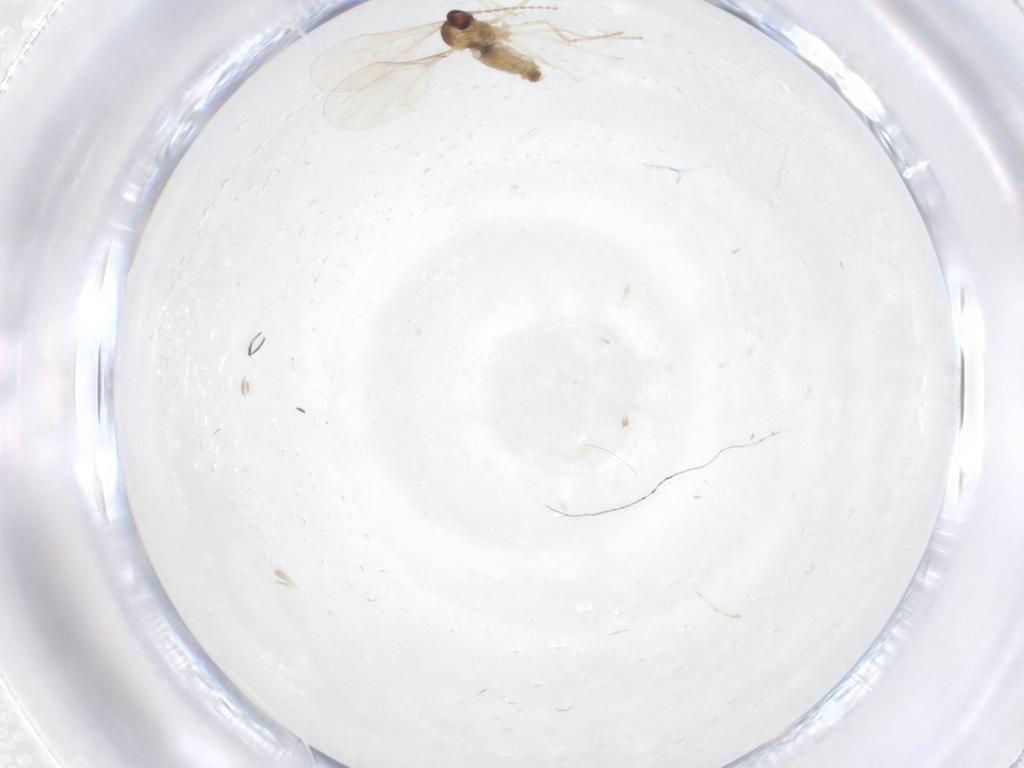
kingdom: Animalia
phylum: Arthropoda
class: Insecta
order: Diptera
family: Cecidomyiidae
